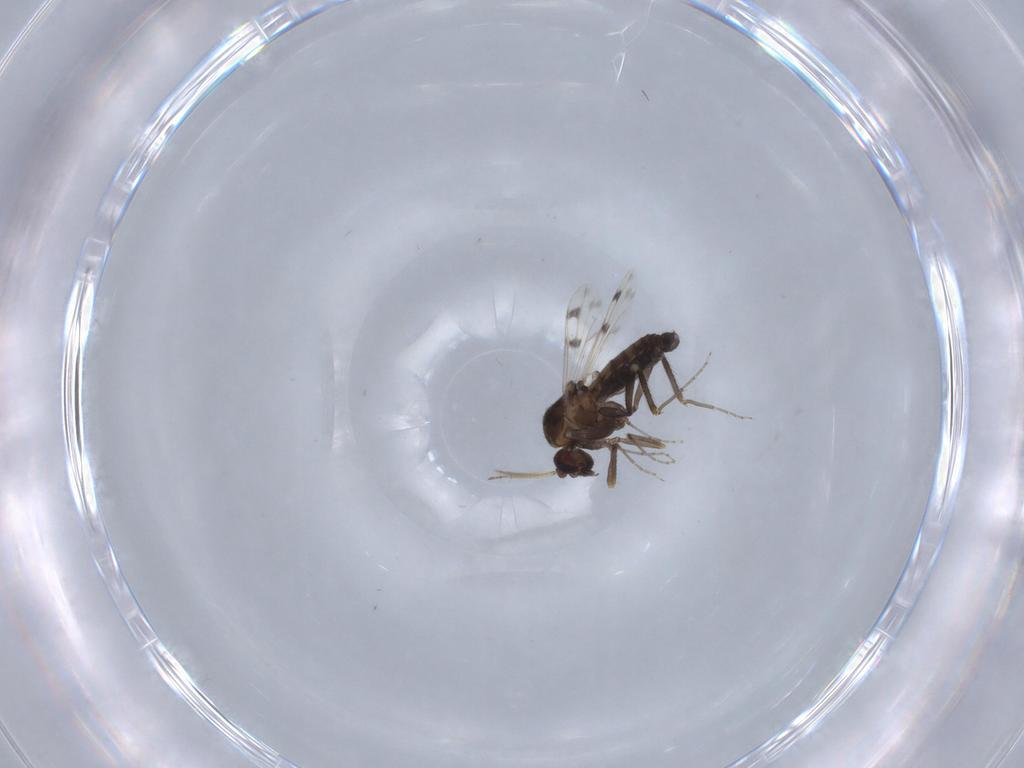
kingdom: Animalia
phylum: Arthropoda
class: Insecta
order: Diptera
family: Ceratopogonidae
